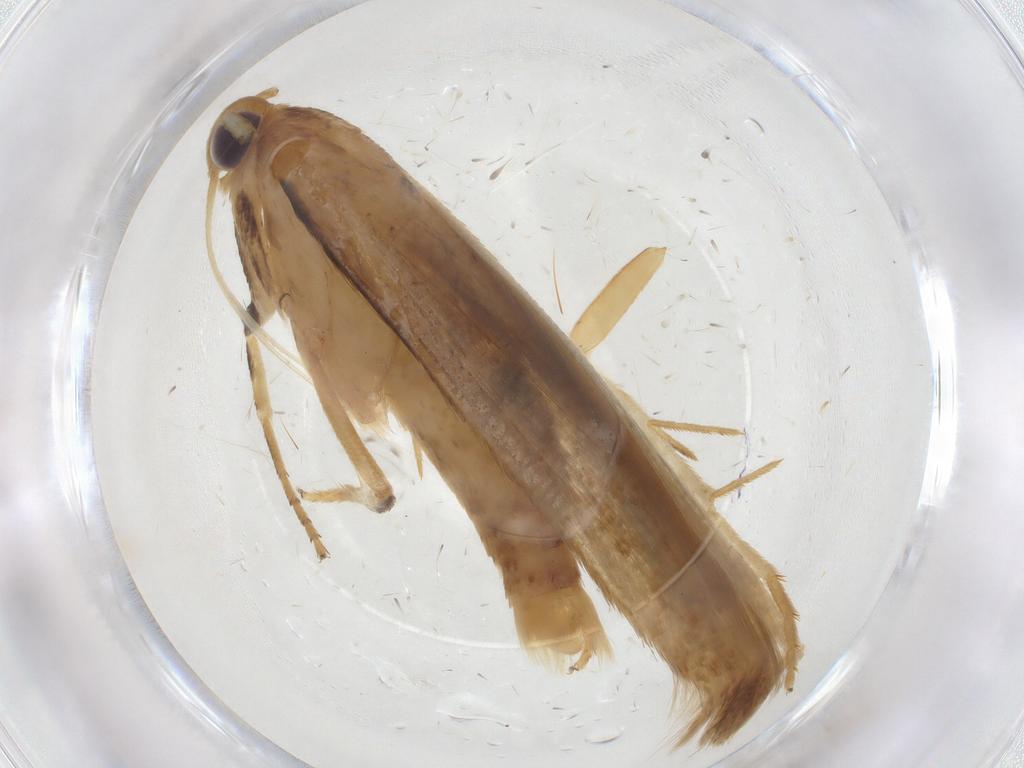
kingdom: Animalia
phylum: Arthropoda
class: Insecta
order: Lepidoptera
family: Stathmopodidae
